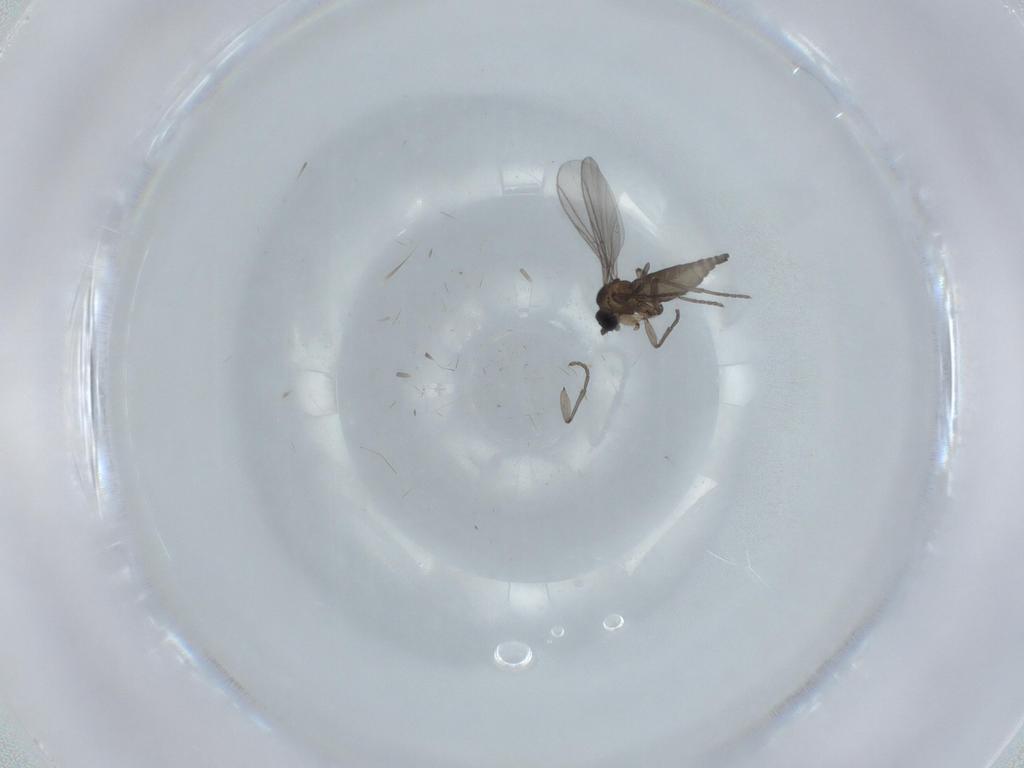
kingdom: Animalia
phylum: Arthropoda
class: Insecta
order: Diptera
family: Sciaridae
